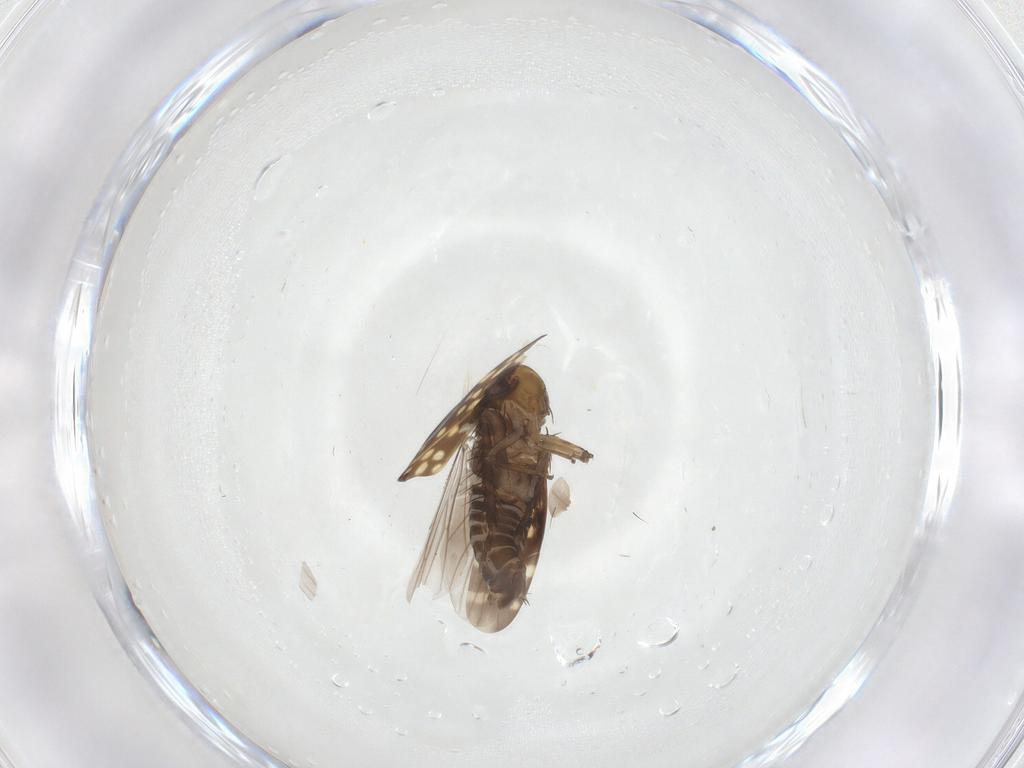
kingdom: Animalia
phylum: Arthropoda
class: Insecta
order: Hemiptera
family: Cicadellidae
